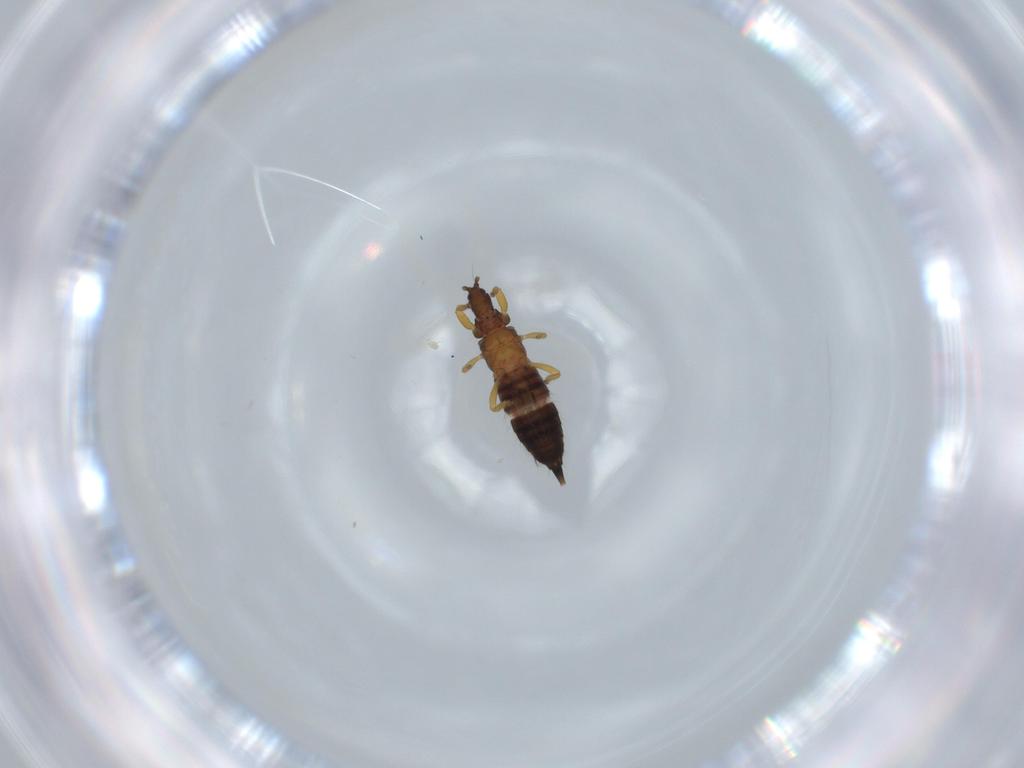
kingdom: Animalia
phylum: Arthropoda
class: Insecta
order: Thysanoptera
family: Phlaeothripidae
